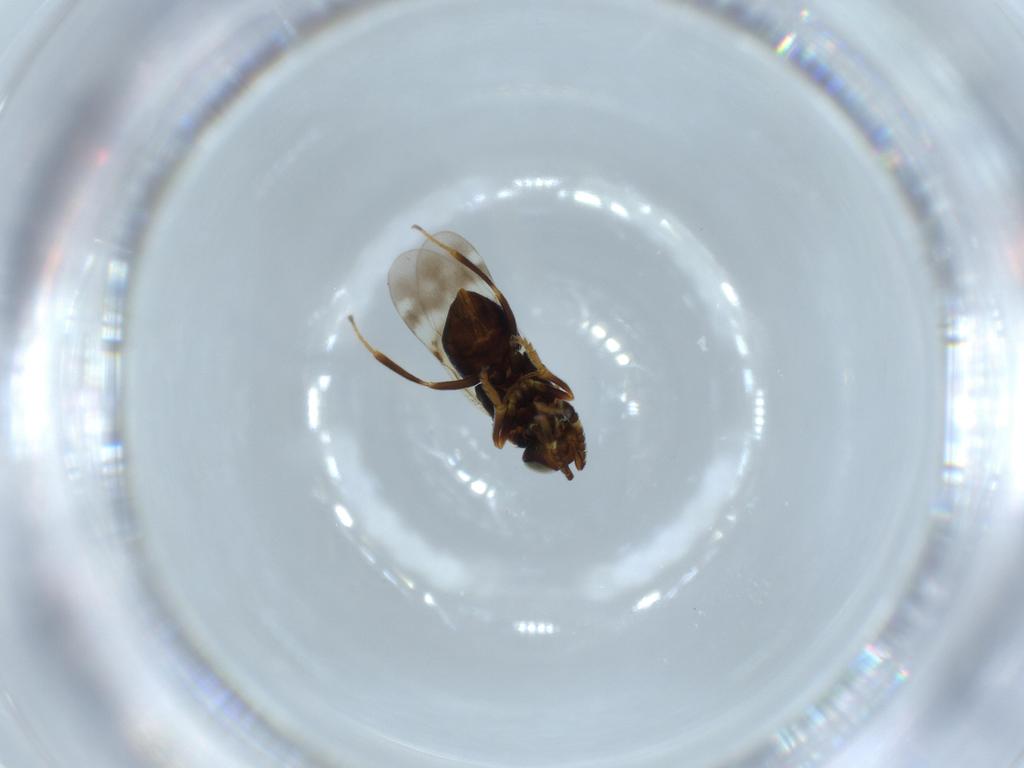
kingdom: Animalia
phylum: Arthropoda
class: Insecta
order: Hymenoptera
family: Encyrtidae
